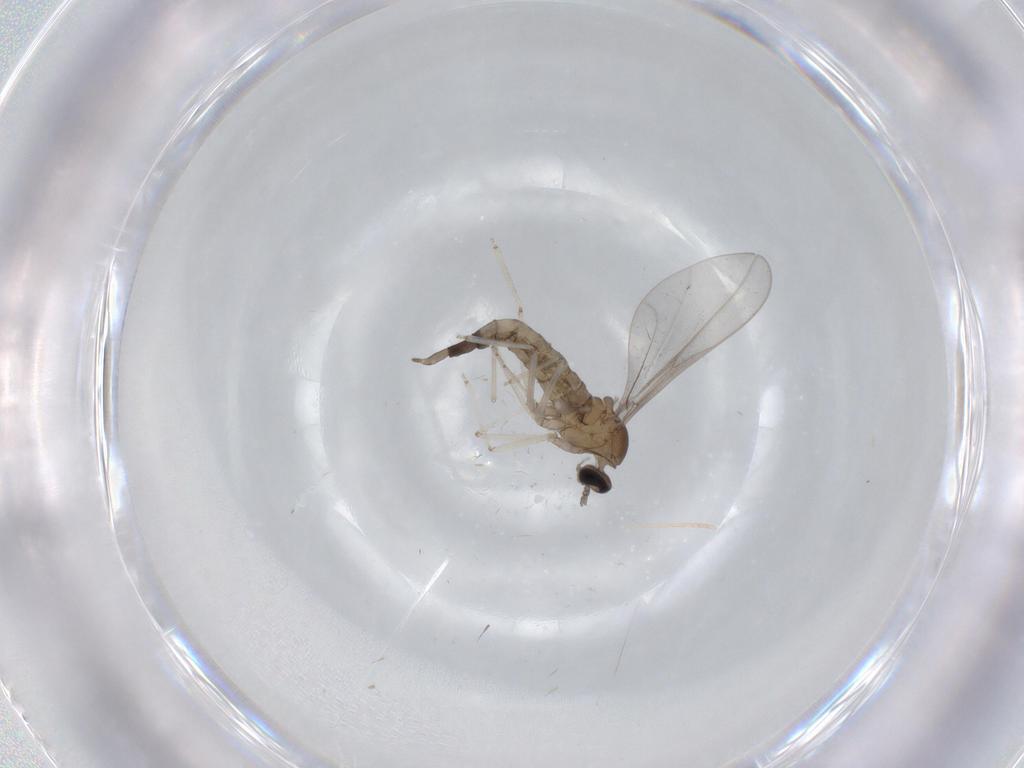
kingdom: Animalia
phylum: Arthropoda
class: Insecta
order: Diptera
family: Cecidomyiidae
